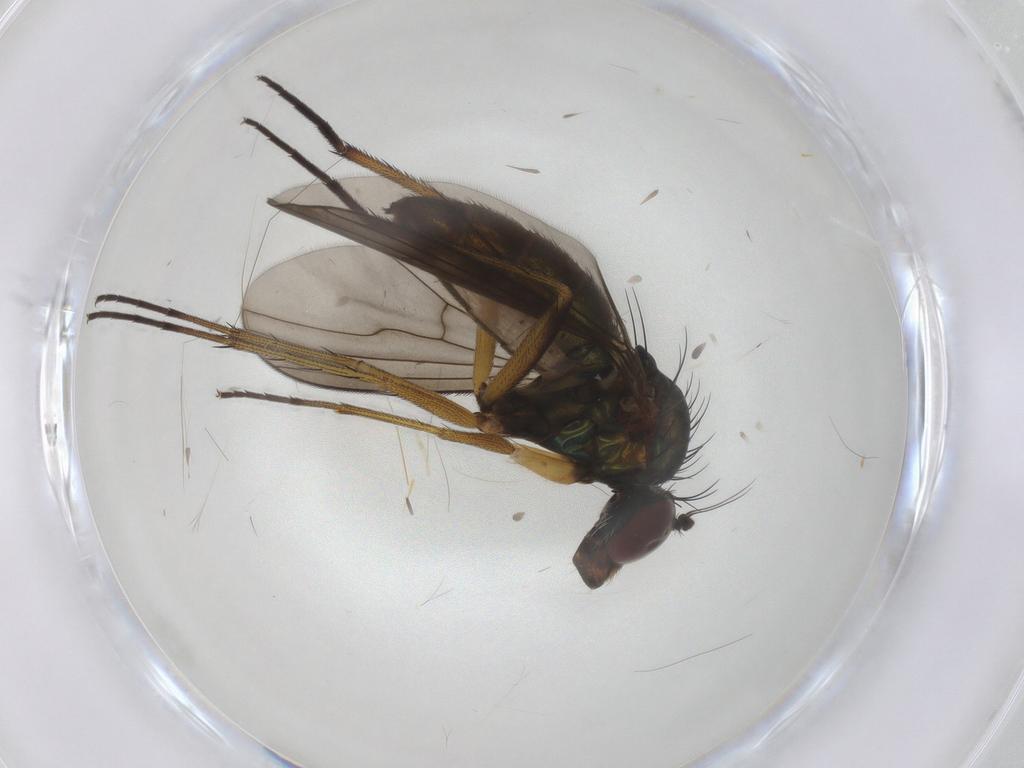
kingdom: Animalia
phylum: Arthropoda
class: Insecta
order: Diptera
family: Dolichopodidae
